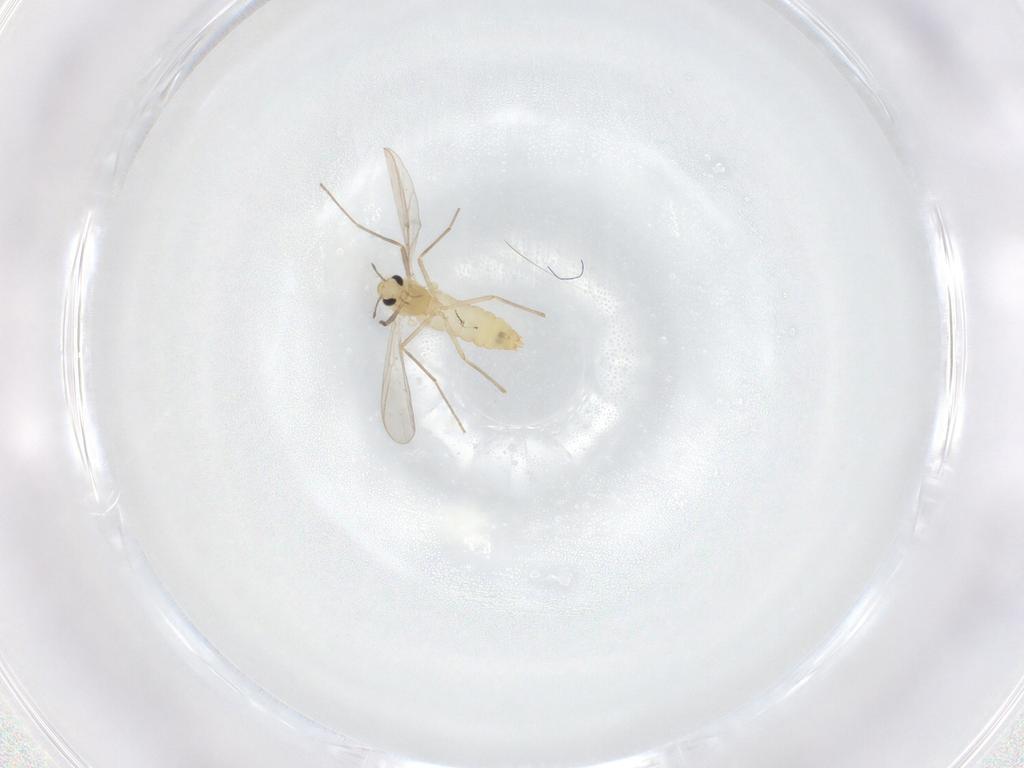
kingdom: Animalia
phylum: Arthropoda
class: Insecta
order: Diptera
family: Chironomidae
